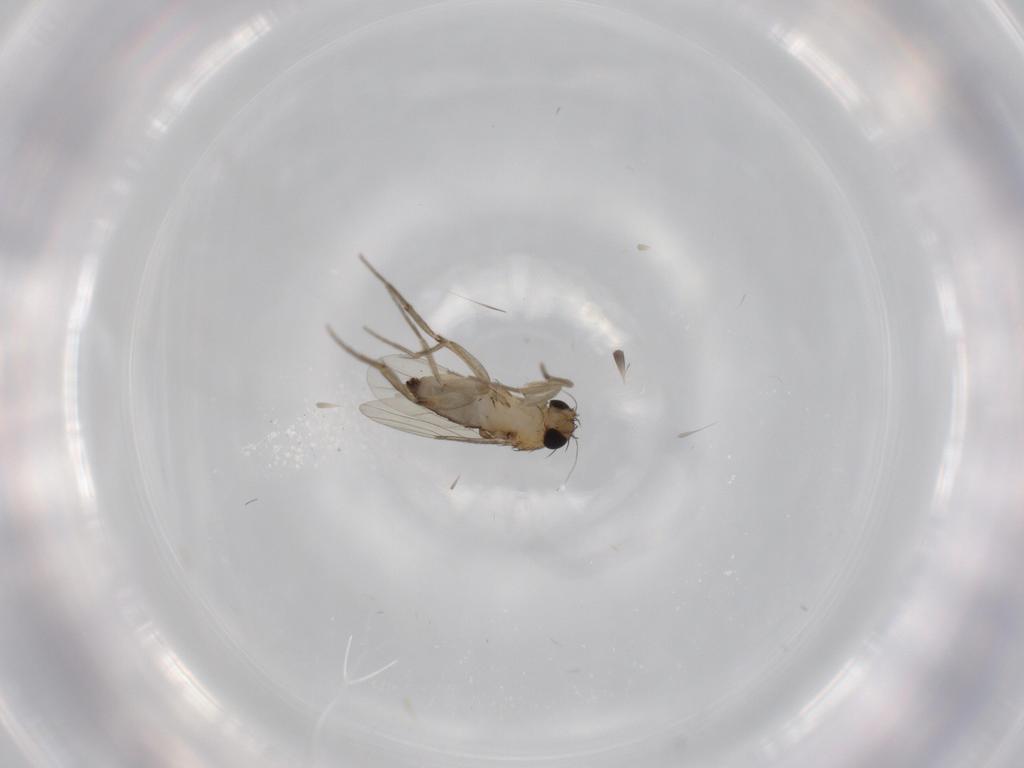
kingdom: Animalia
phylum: Arthropoda
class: Insecta
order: Diptera
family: Phoridae
